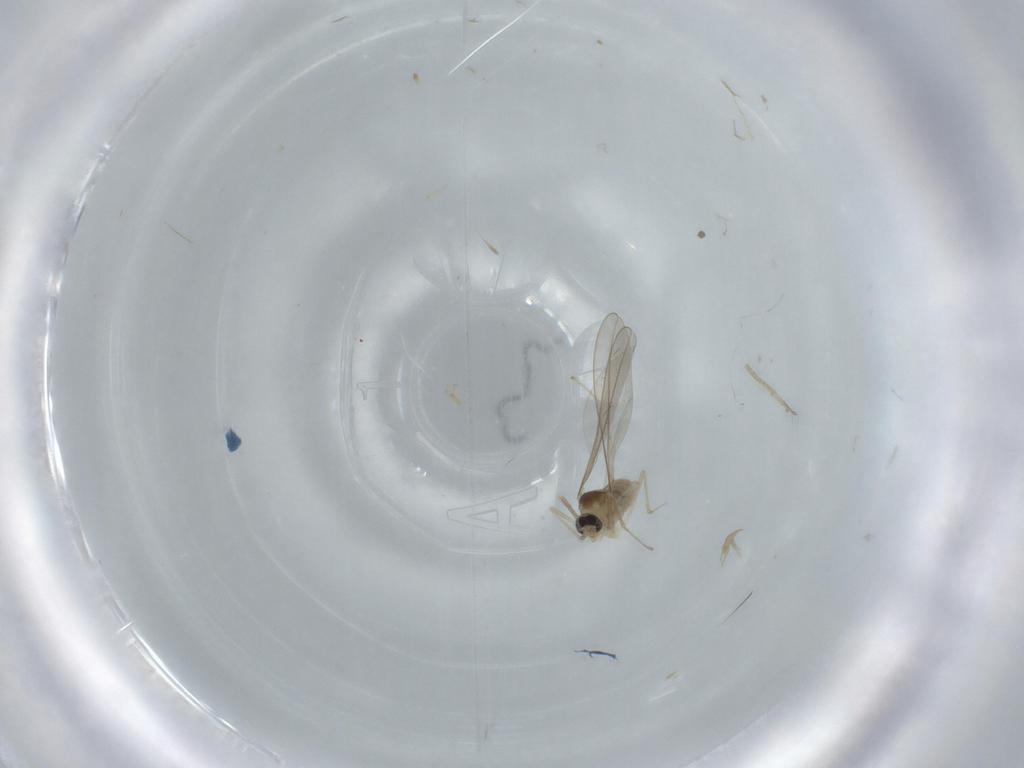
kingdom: Animalia
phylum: Arthropoda
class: Insecta
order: Diptera
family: Cecidomyiidae
